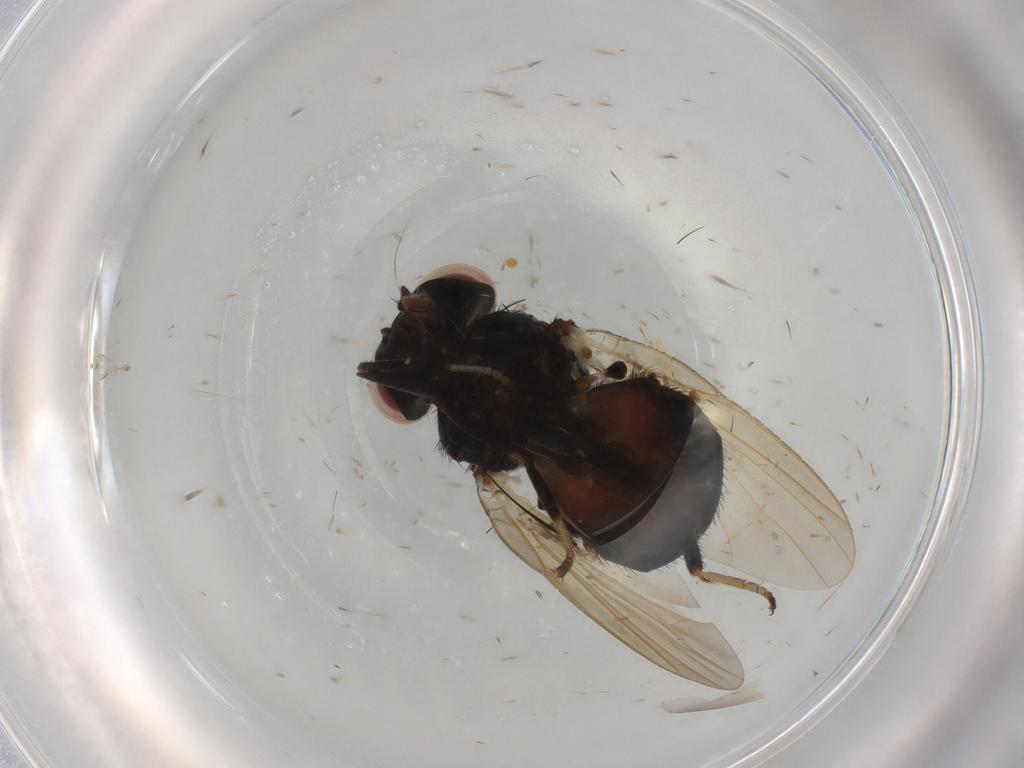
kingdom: Animalia
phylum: Arthropoda
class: Insecta
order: Diptera
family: Lonchaeidae
